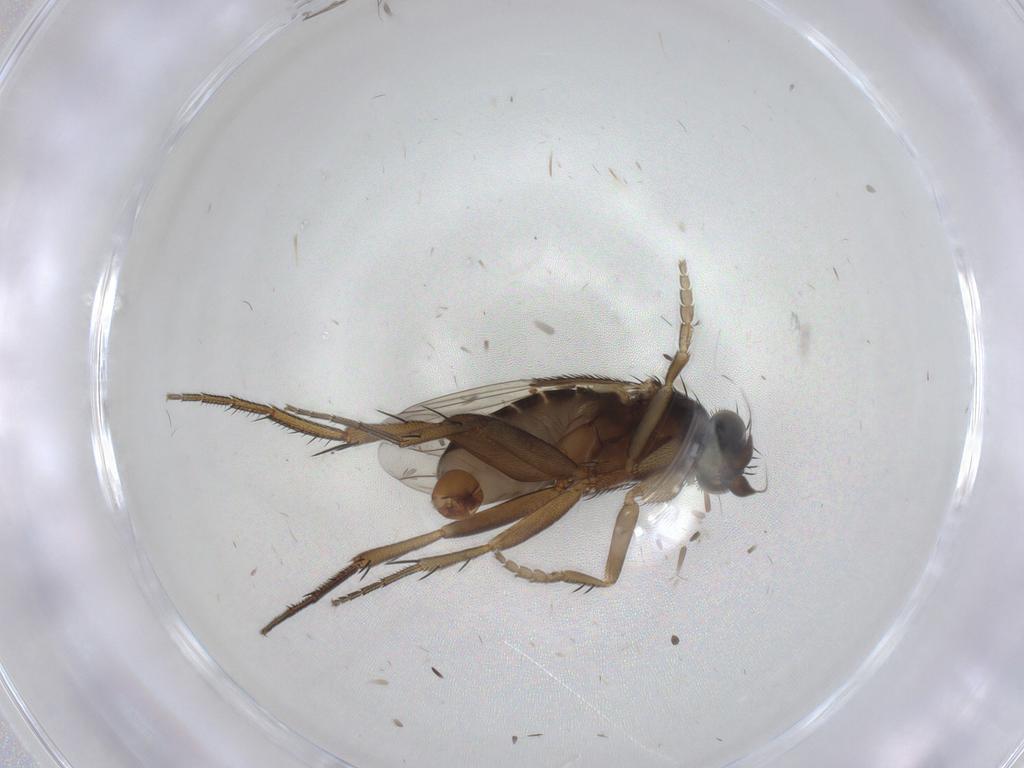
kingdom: Animalia
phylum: Arthropoda
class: Insecta
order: Diptera
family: Phoridae
